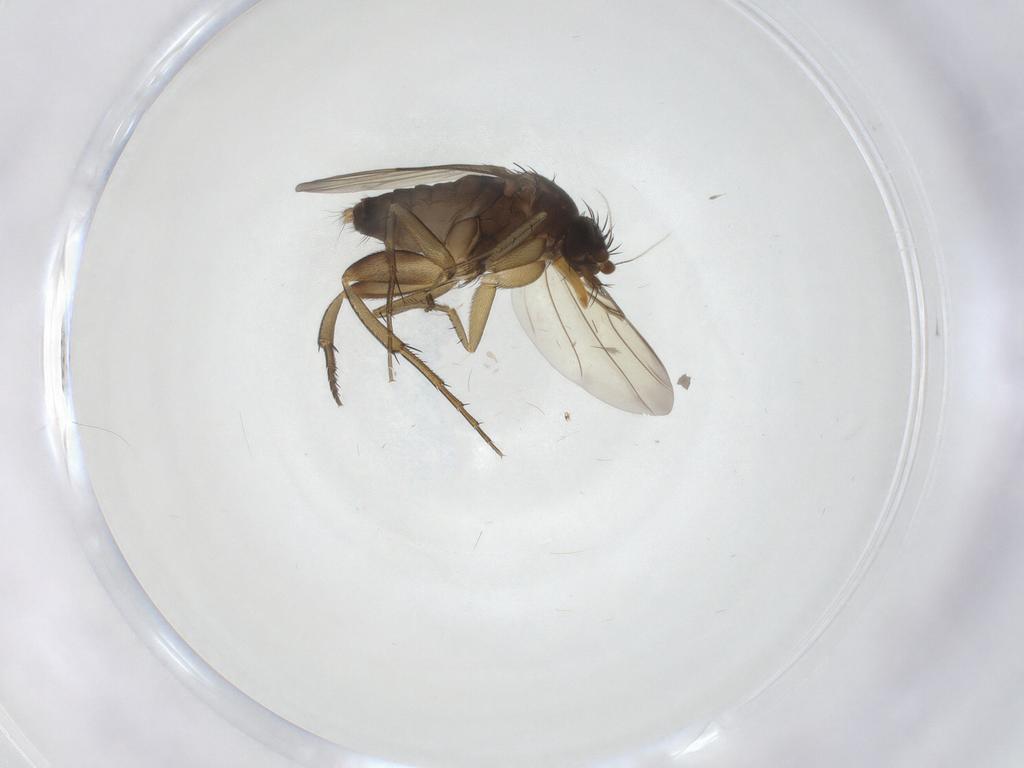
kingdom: Animalia
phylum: Arthropoda
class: Insecta
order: Diptera
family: Phoridae
